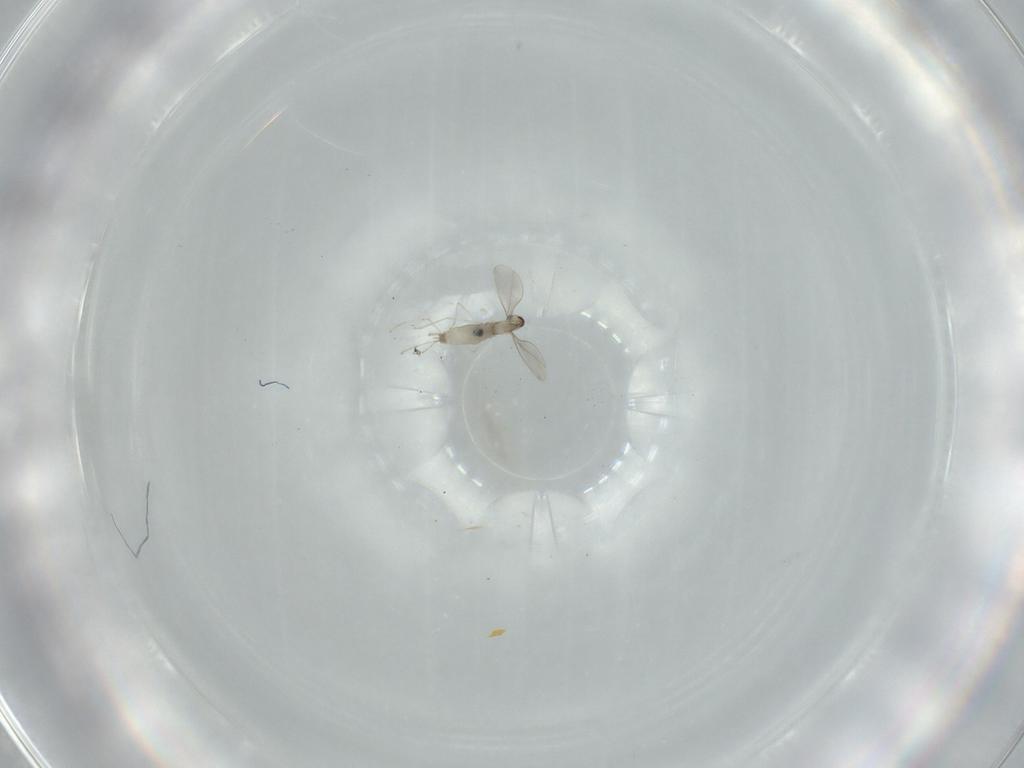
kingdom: Animalia
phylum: Arthropoda
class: Insecta
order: Diptera
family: Cecidomyiidae
